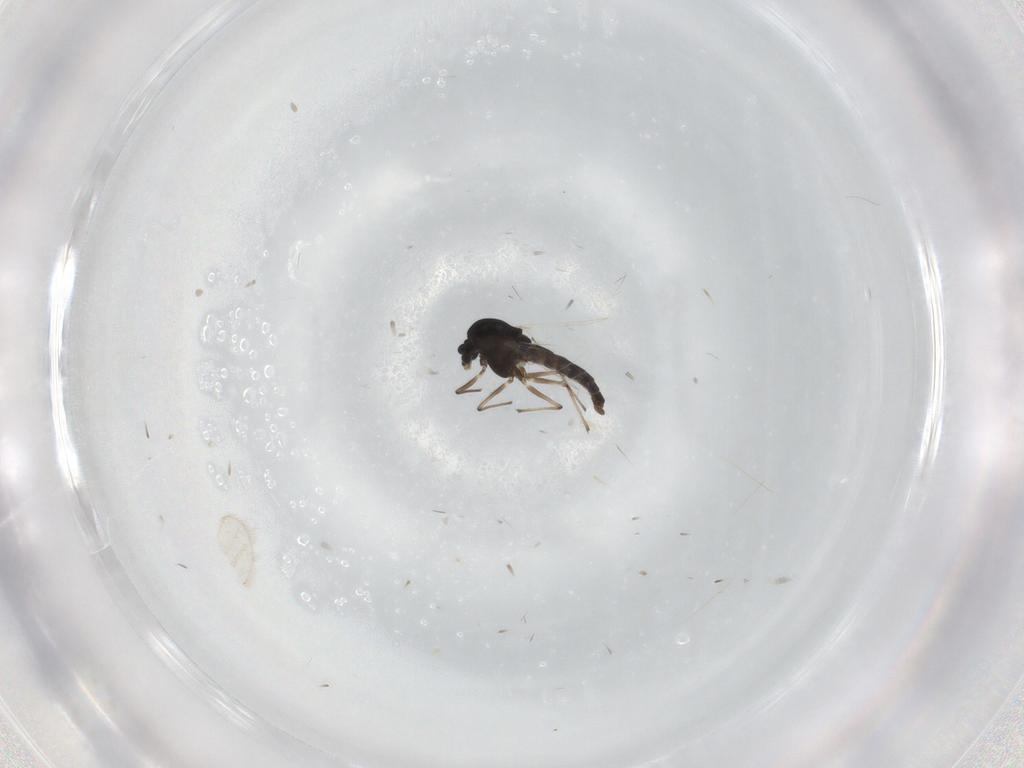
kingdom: Animalia
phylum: Arthropoda
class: Insecta
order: Diptera
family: Chironomidae
